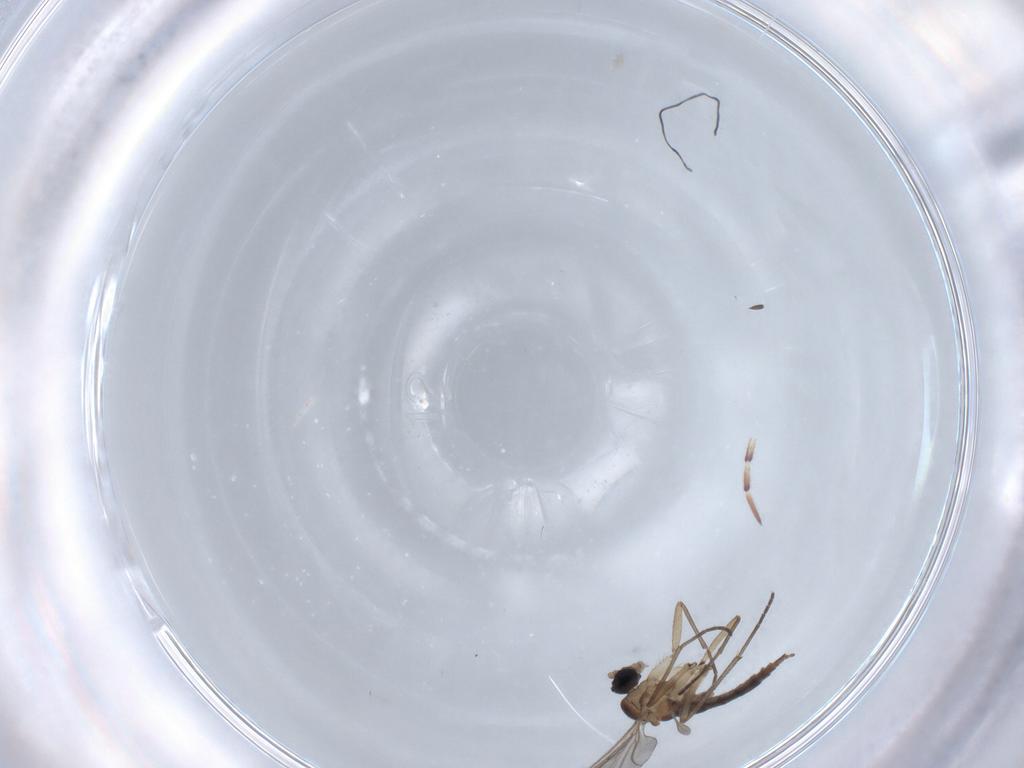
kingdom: Animalia
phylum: Arthropoda
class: Insecta
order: Diptera
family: Sciaridae
